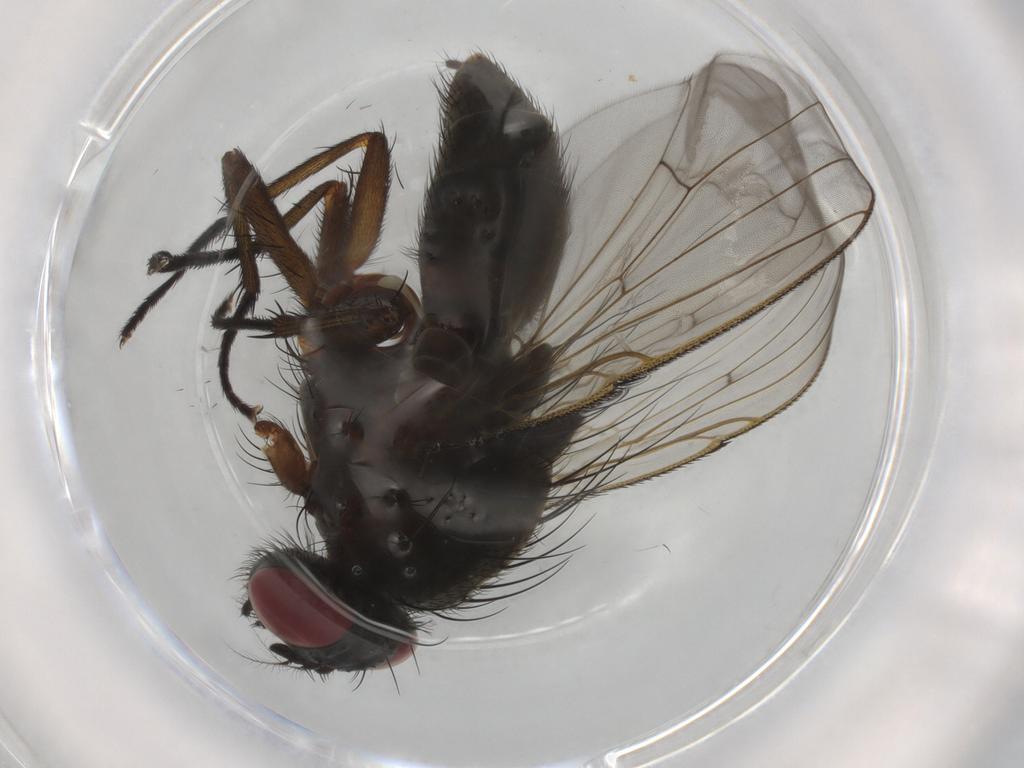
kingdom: Animalia
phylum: Arthropoda
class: Insecta
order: Diptera
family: Muscidae
